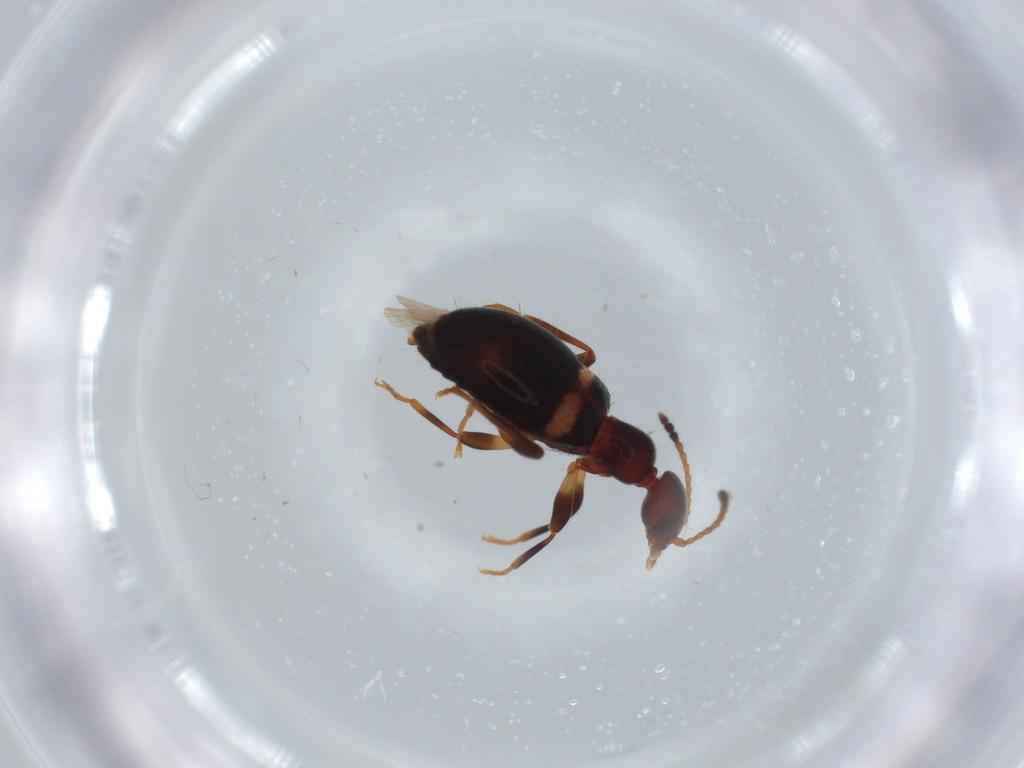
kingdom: Animalia
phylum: Arthropoda
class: Insecta
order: Coleoptera
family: Anthicidae
